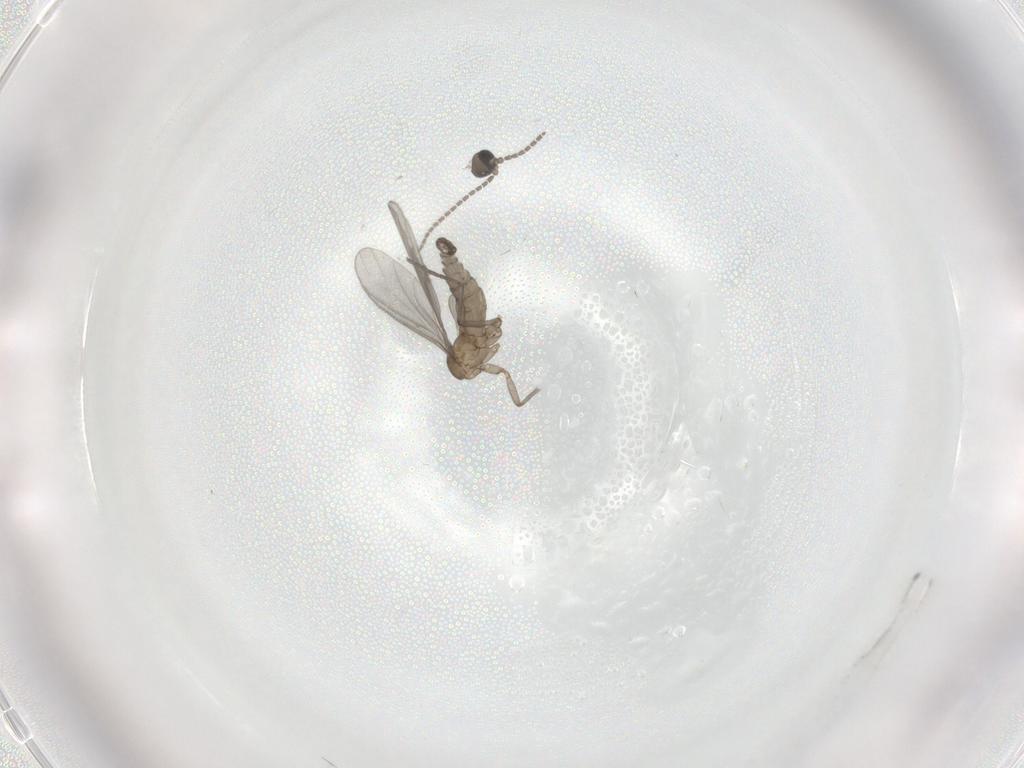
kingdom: Animalia
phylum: Arthropoda
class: Insecta
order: Diptera
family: Sciaridae
